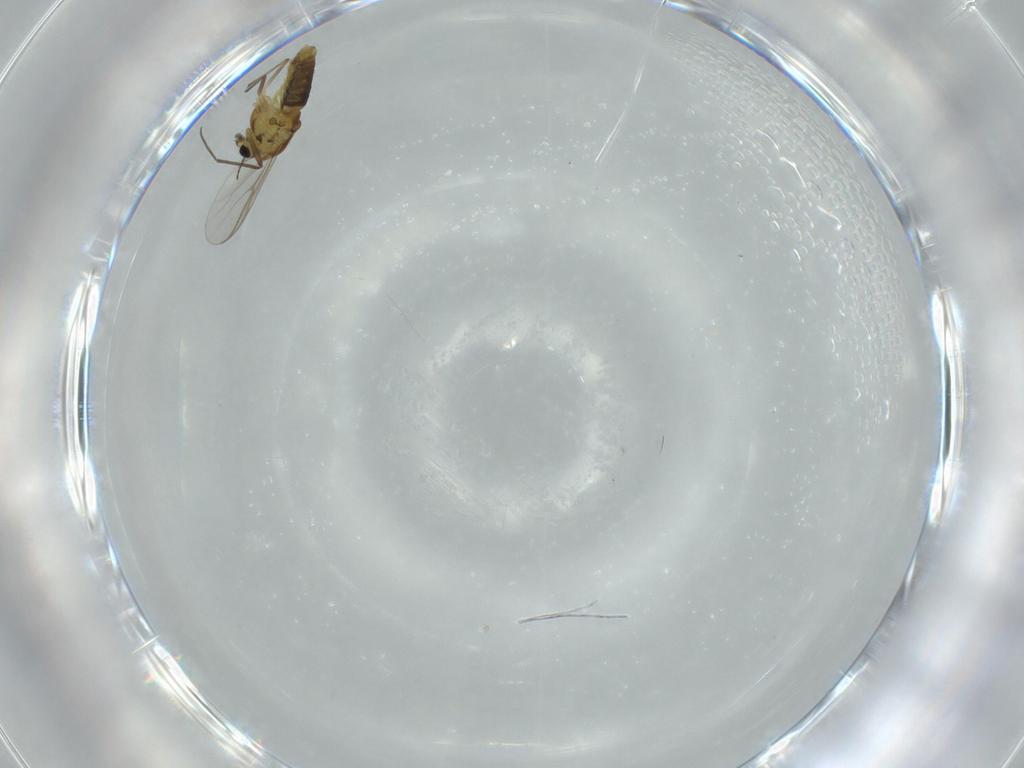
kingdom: Animalia
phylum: Arthropoda
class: Insecta
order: Diptera
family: Chironomidae
